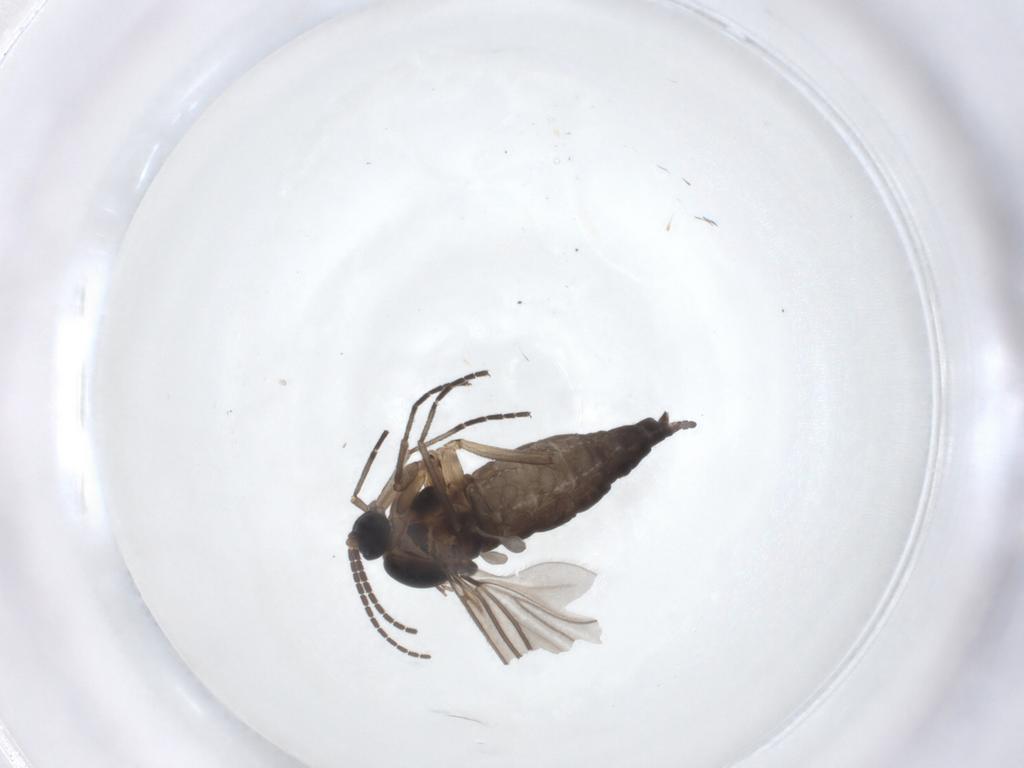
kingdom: Animalia
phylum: Arthropoda
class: Insecta
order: Diptera
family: Sciaridae
